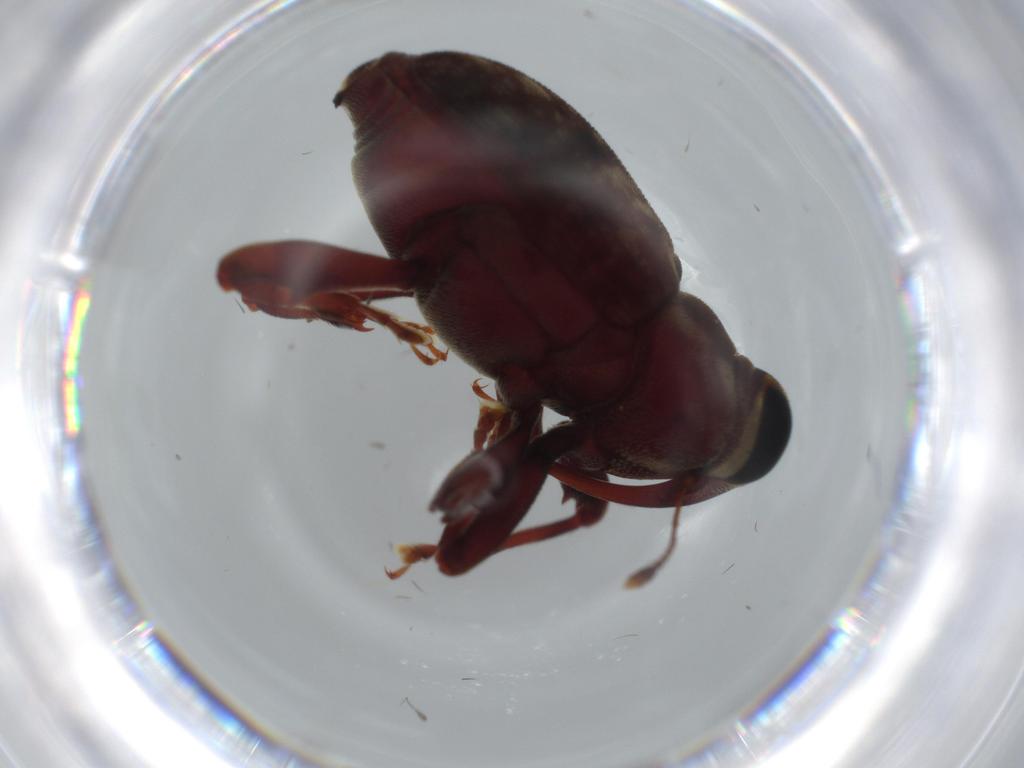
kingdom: Animalia
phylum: Arthropoda
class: Insecta
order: Coleoptera
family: Curculionidae
